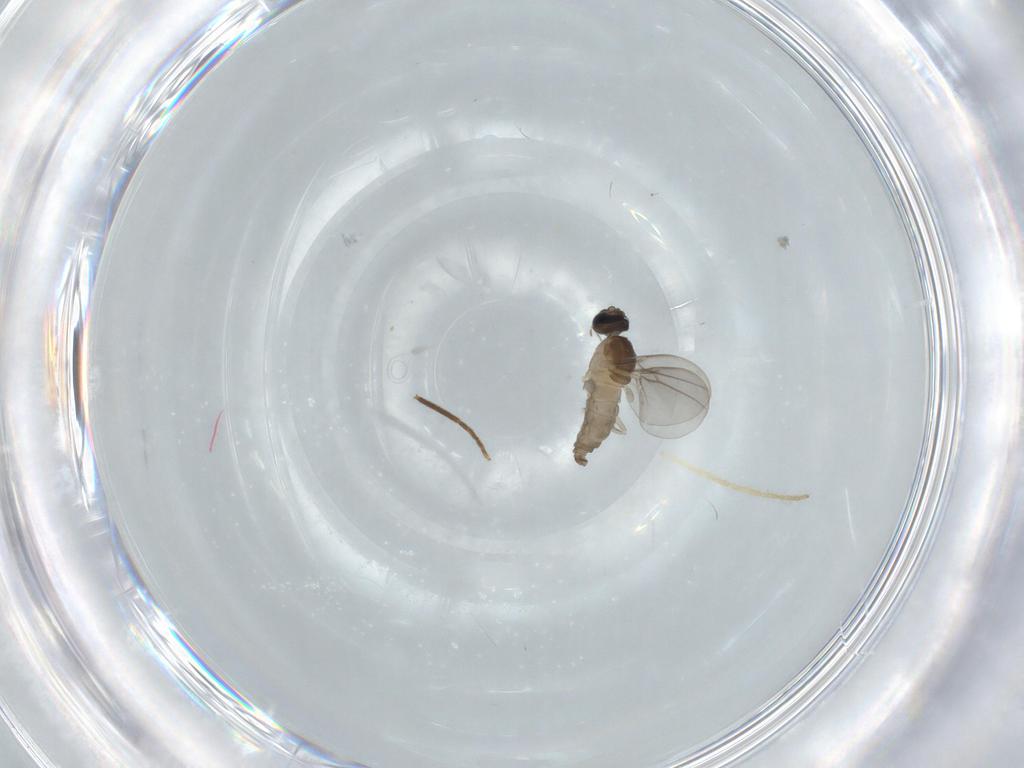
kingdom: Animalia
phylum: Arthropoda
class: Insecta
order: Diptera
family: Cecidomyiidae
